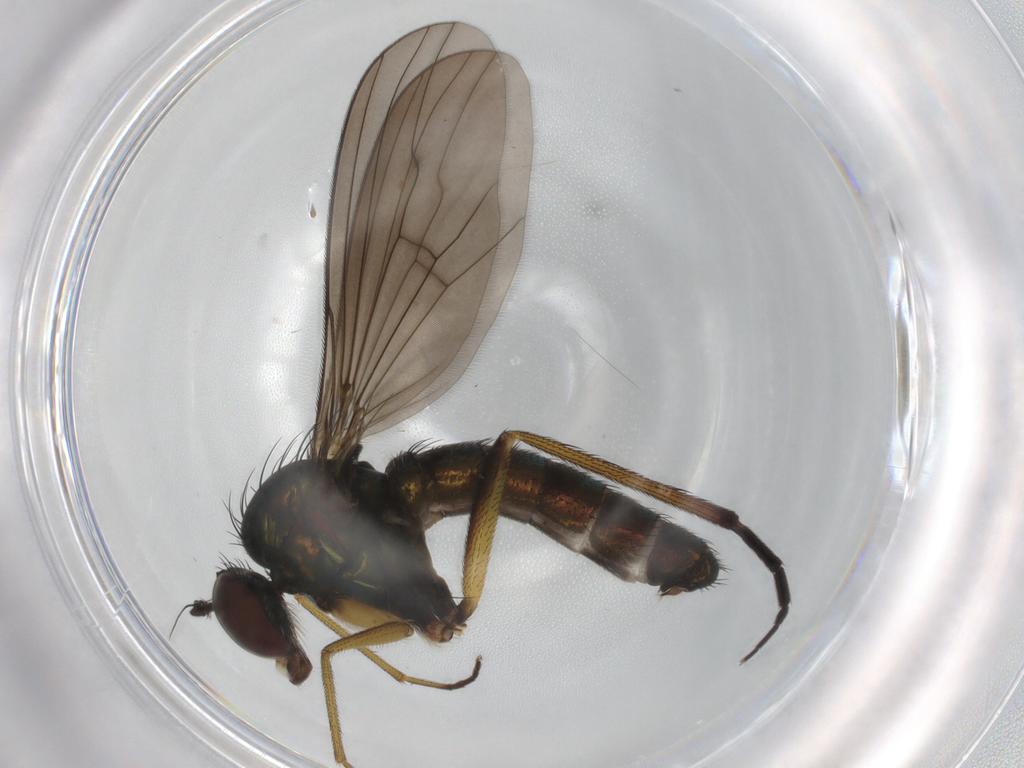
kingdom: Animalia
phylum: Arthropoda
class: Insecta
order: Diptera
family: Dolichopodidae
